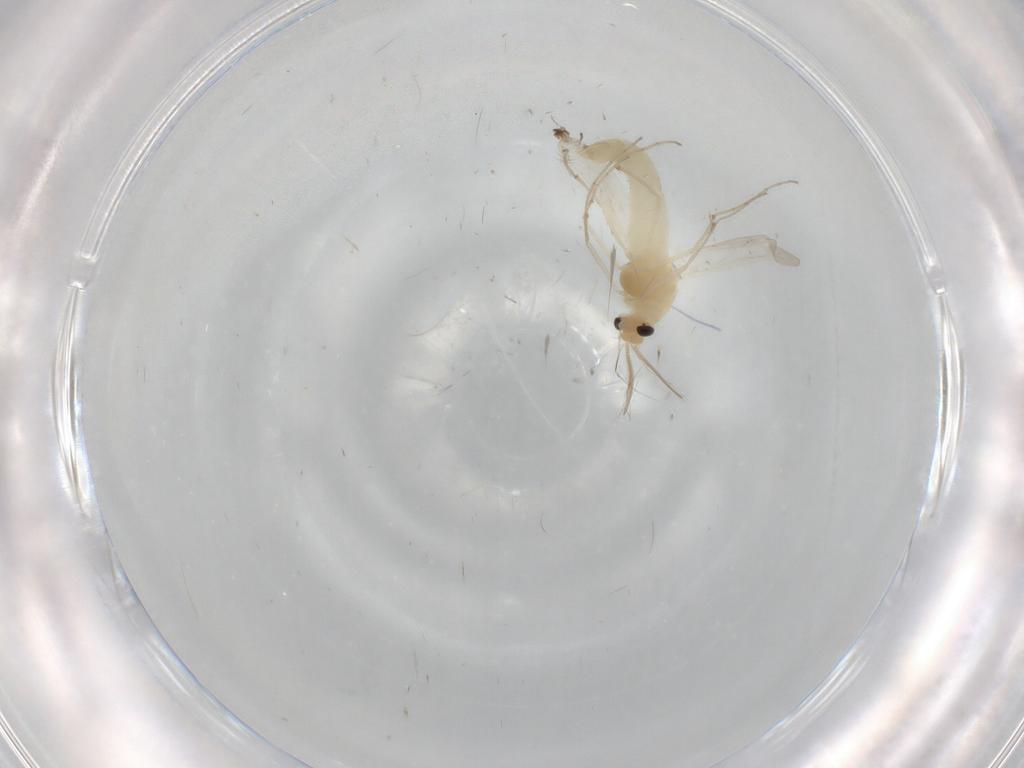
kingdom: Animalia
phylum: Arthropoda
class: Insecta
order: Diptera
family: Chironomidae
